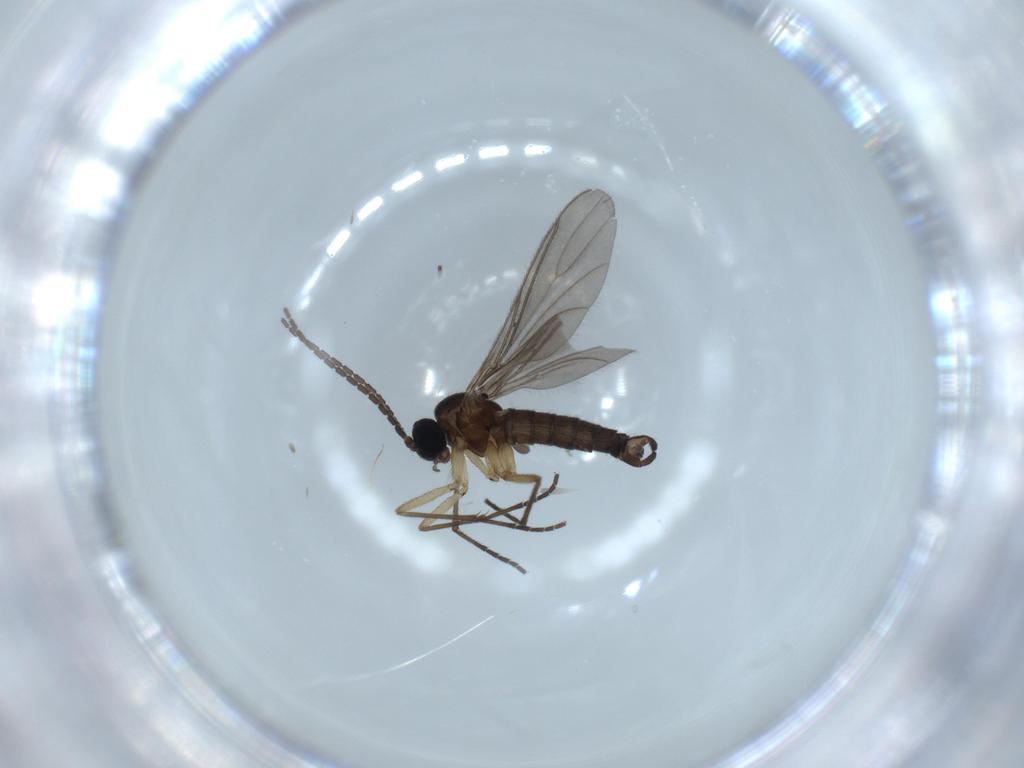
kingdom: Animalia
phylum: Arthropoda
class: Insecta
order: Diptera
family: Sciaridae
